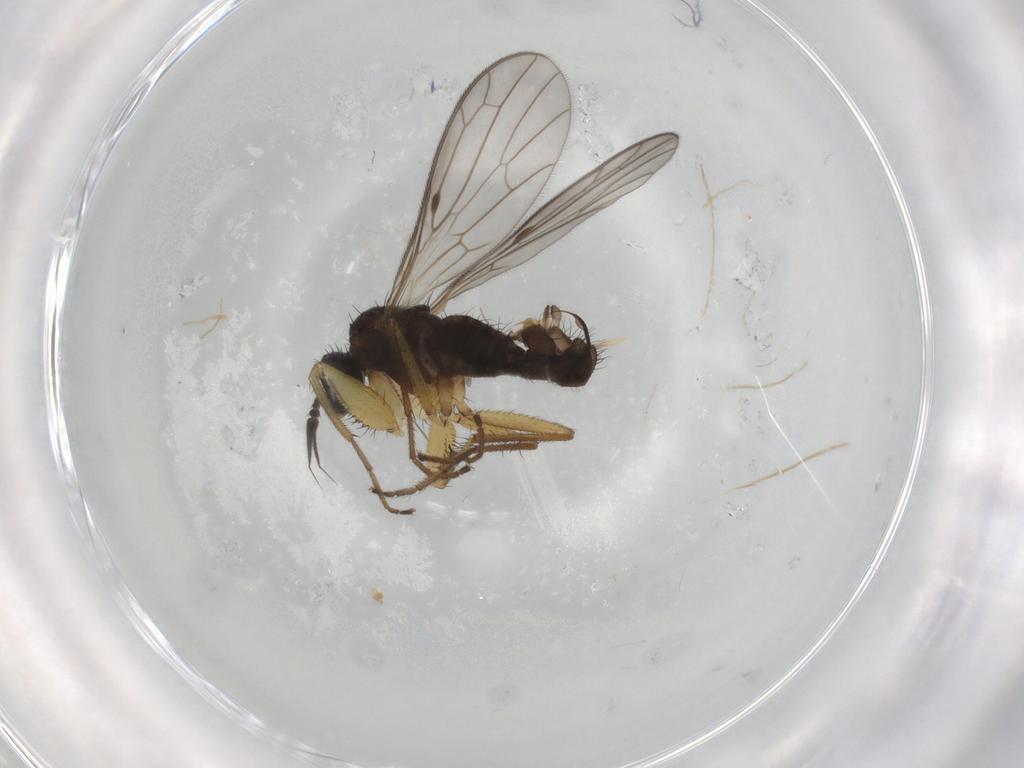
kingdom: Animalia
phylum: Arthropoda
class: Insecta
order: Diptera
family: Chironomidae
